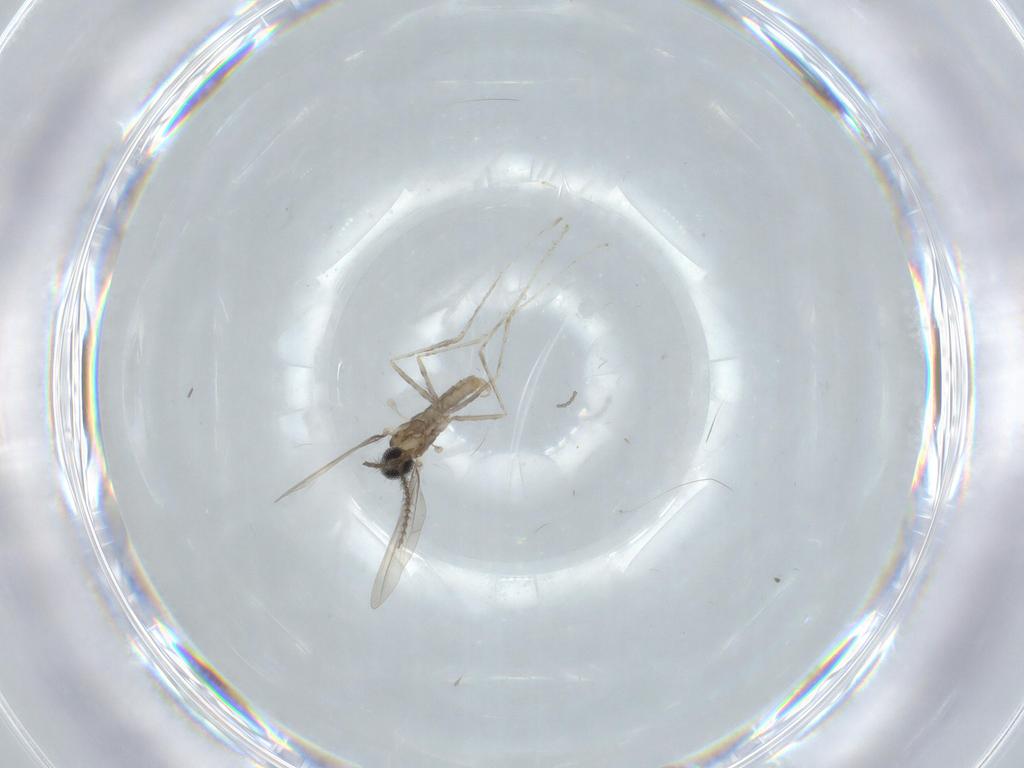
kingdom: Animalia
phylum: Arthropoda
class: Insecta
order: Diptera
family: Cecidomyiidae
